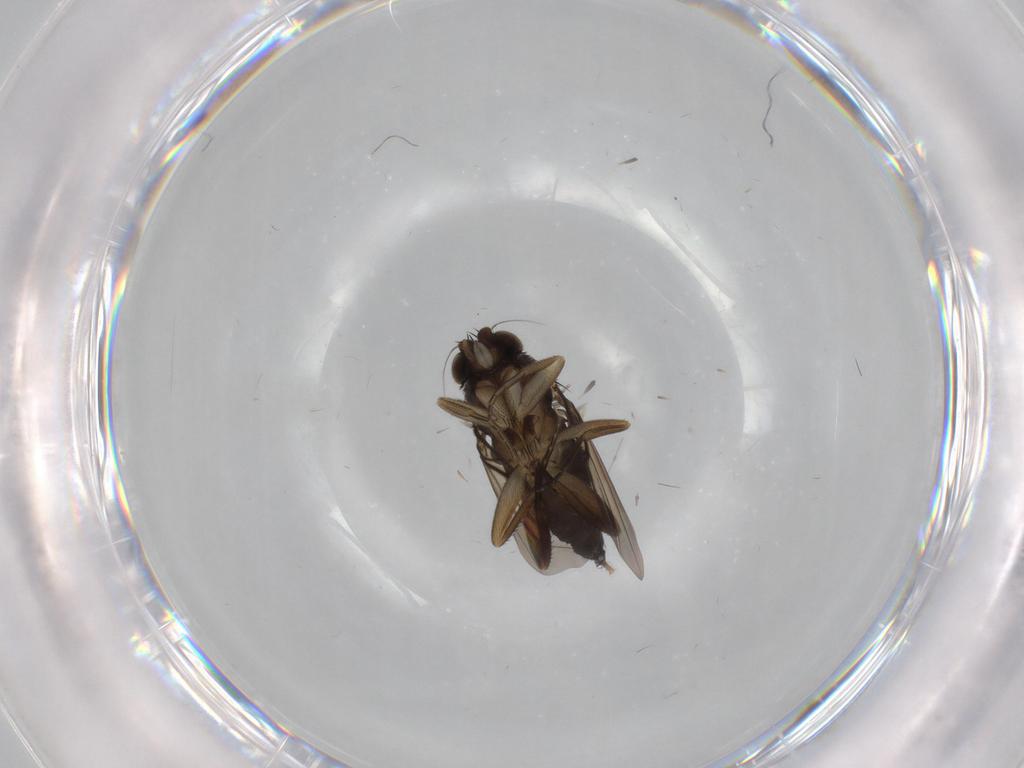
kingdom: Animalia
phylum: Arthropoda
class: Insecta
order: Diptera
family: Phoridae
